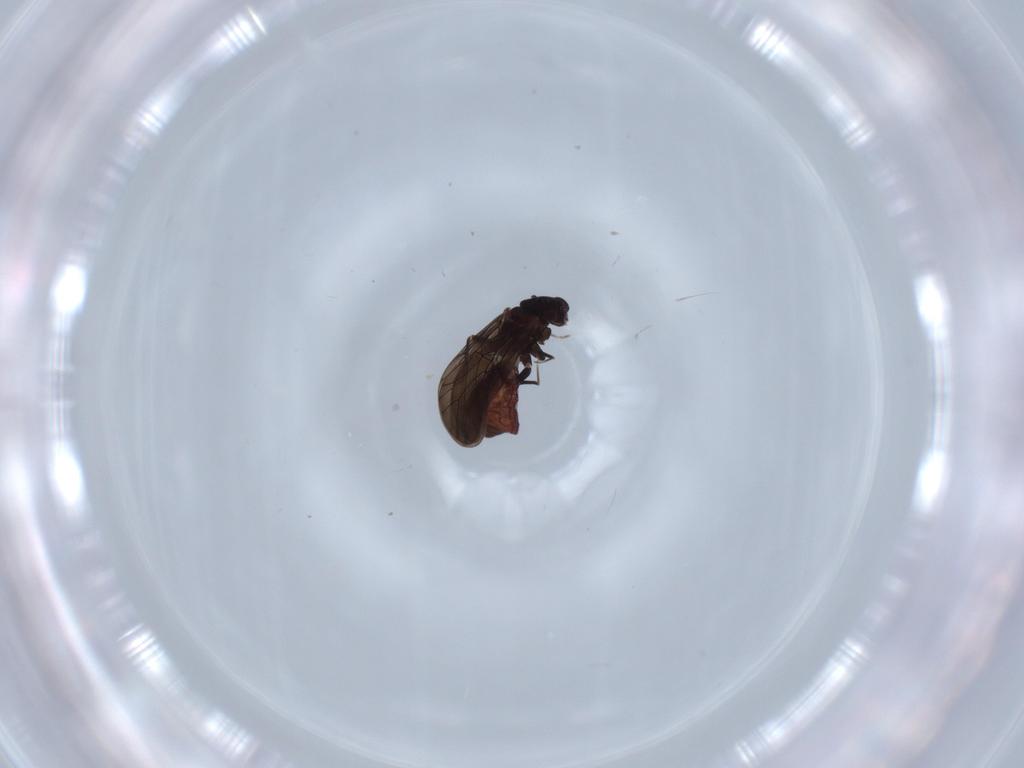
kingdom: Animalia
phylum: Arthropoda
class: Insecta
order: Psocodea
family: Lepidopsocidae
